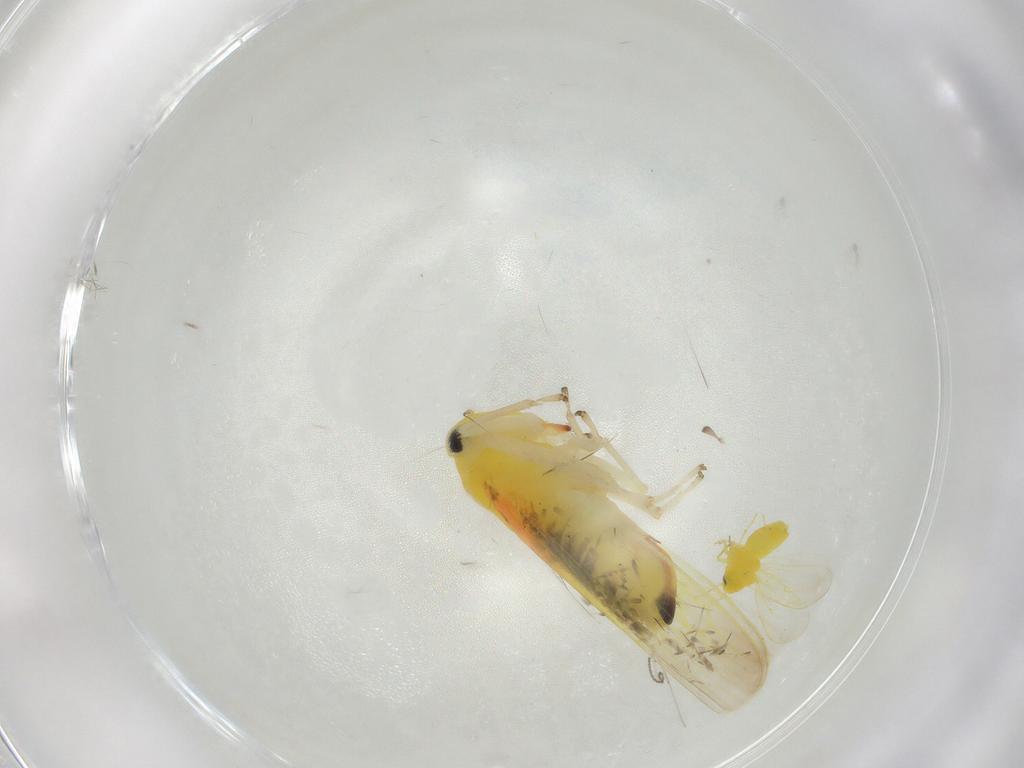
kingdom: Animalia
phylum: Arthropoda
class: Insecta
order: Hemiptera
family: Aleyrodidae
